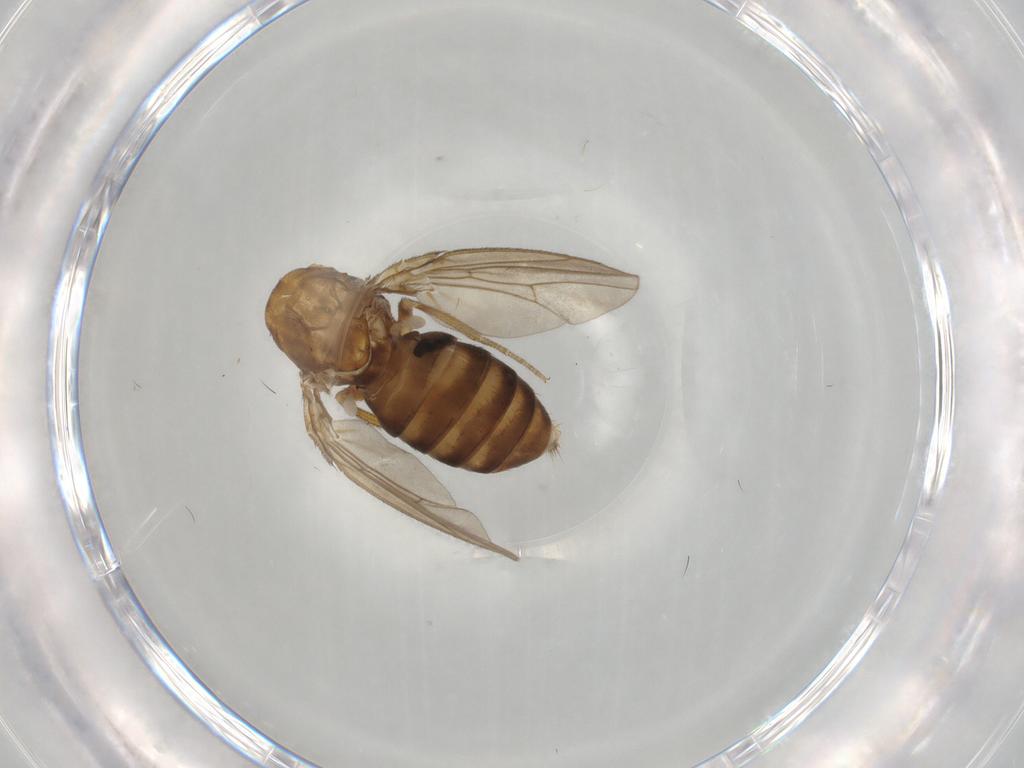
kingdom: Animalia
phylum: Arthropoda
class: Insecta
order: Diptera
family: Drosophilidae
